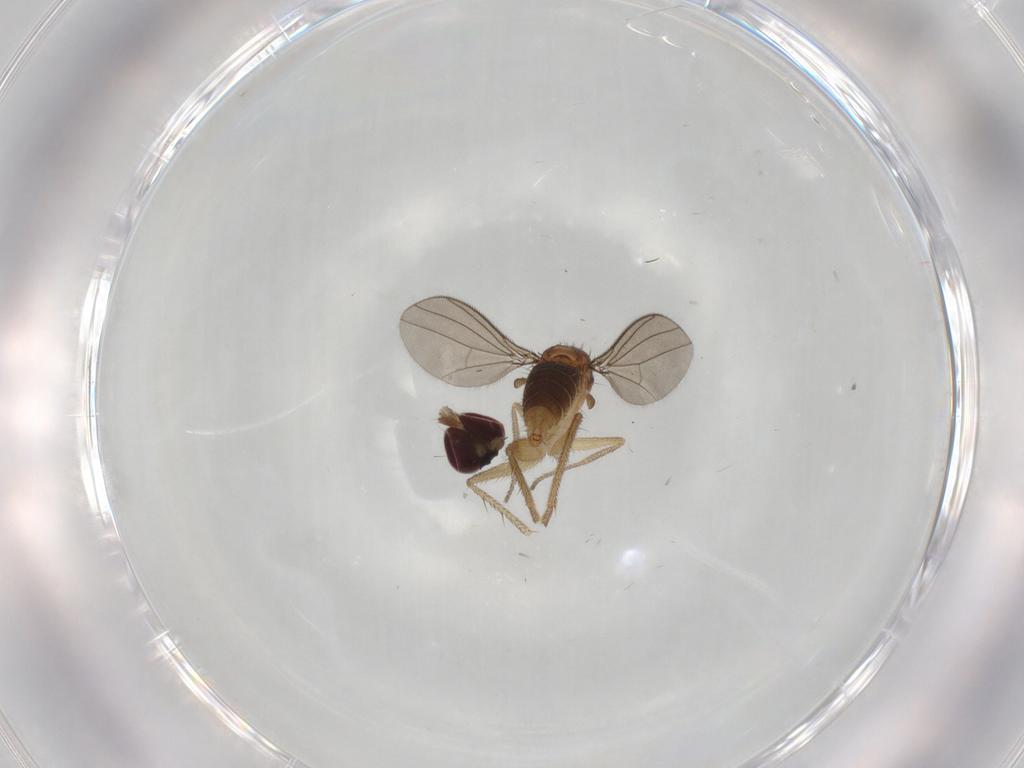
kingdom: Animalia
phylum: Arthropoda
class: Insecta
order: Diptera
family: Dolichopodidae
